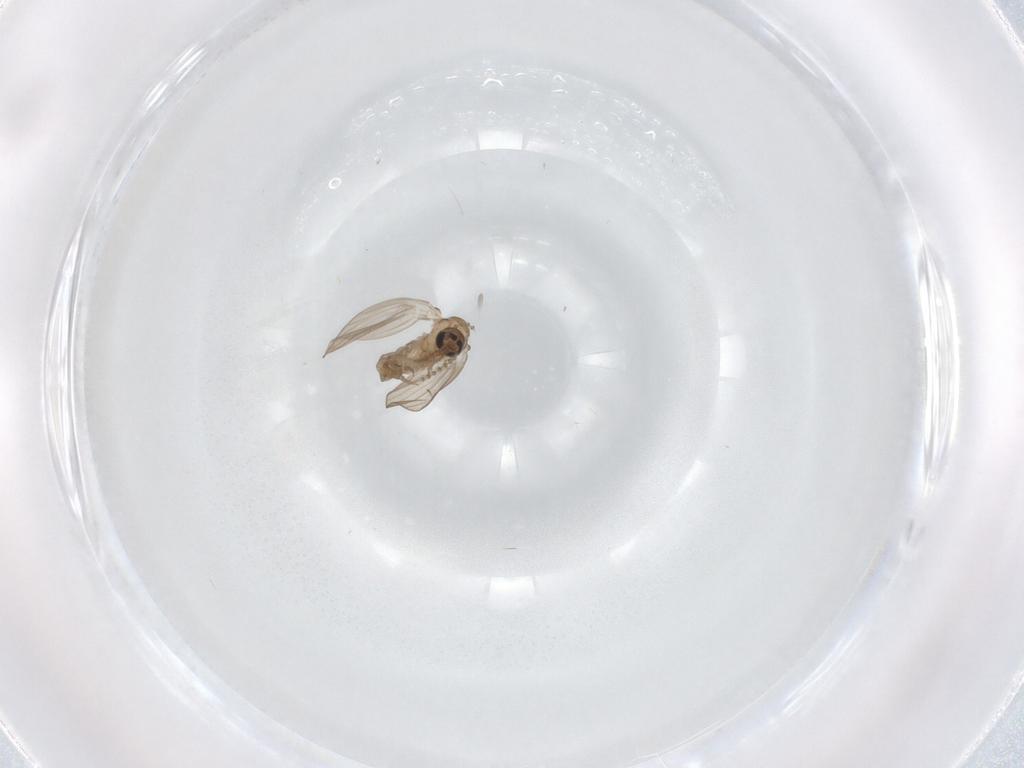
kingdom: Animalia
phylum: Arthropoda
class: Insecta
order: Diptera
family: Psychodidae
